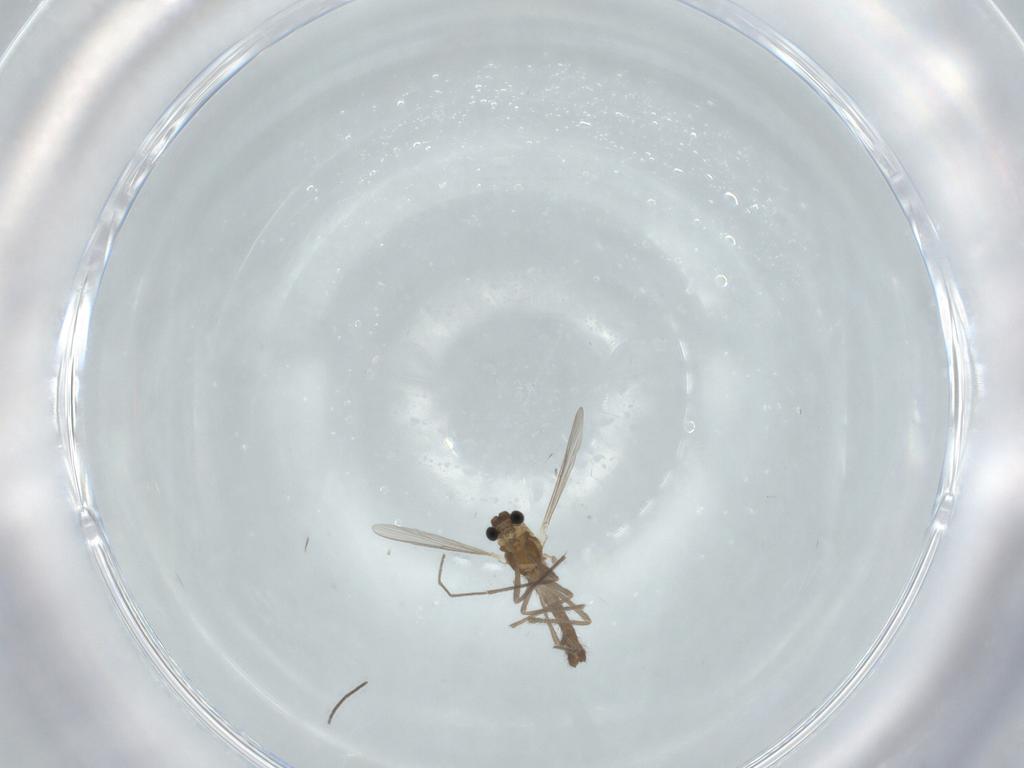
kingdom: Animalia
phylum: Arthropoda
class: Insecta
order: Diptera
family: Chironomidae
